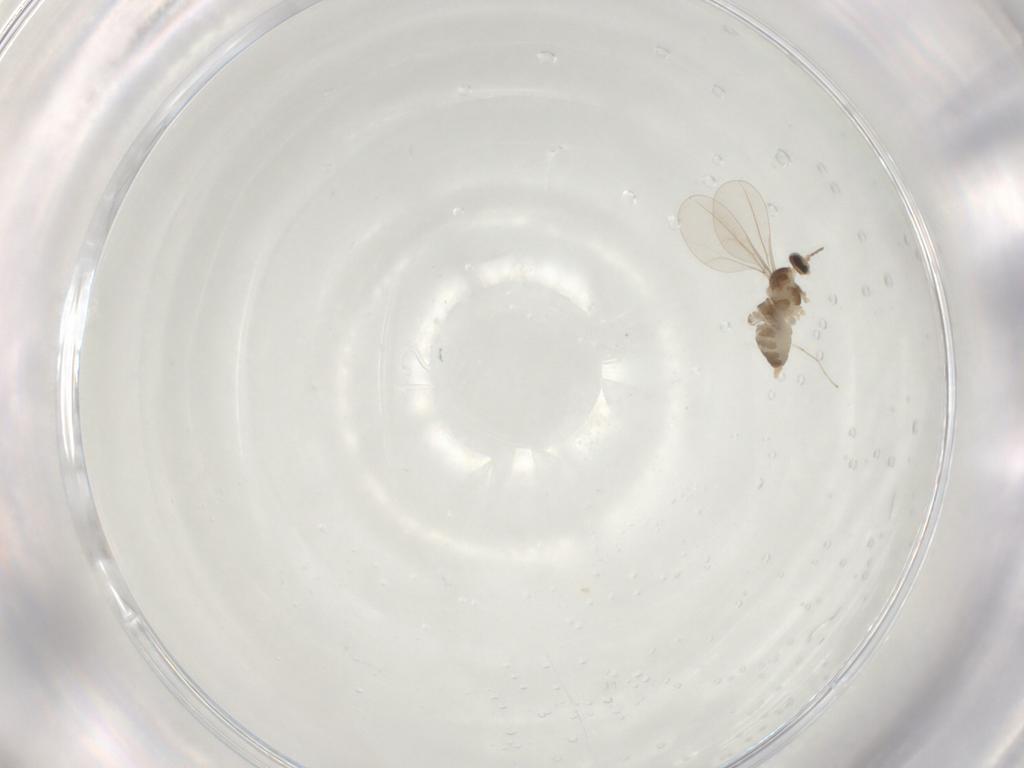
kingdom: Animalia
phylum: Arthropoda
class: Insecta
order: Diptera
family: Cecidomyiidae
